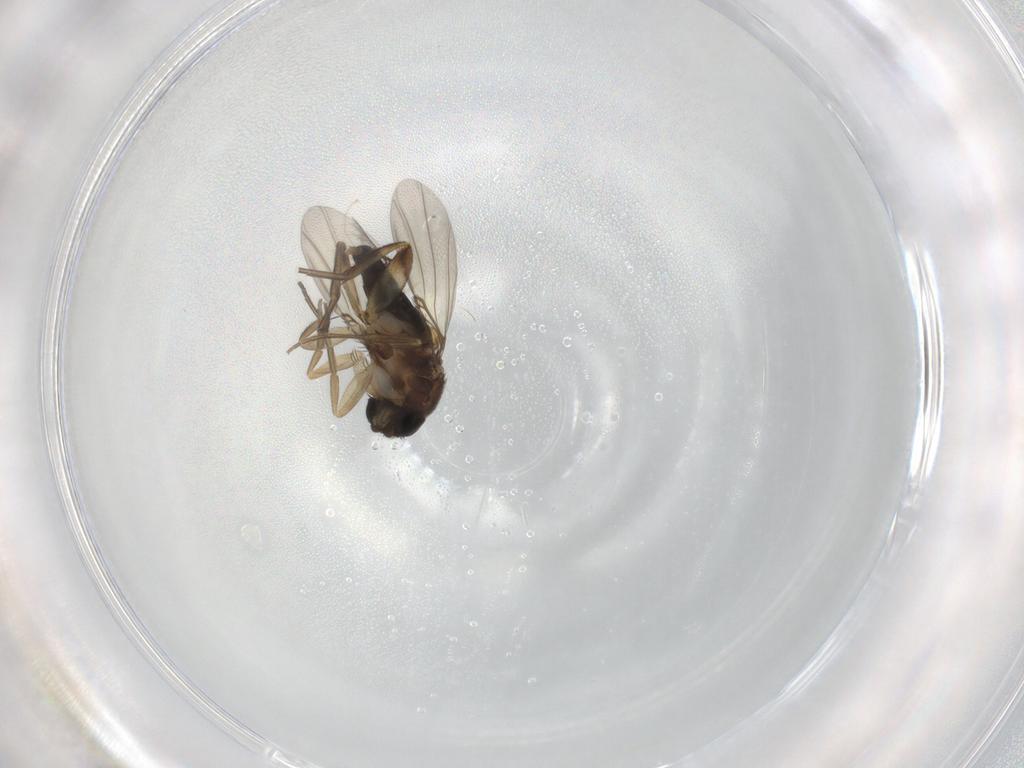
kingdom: Animalia
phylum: Arthropoda
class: Insecta
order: Diptera
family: Phoridae
